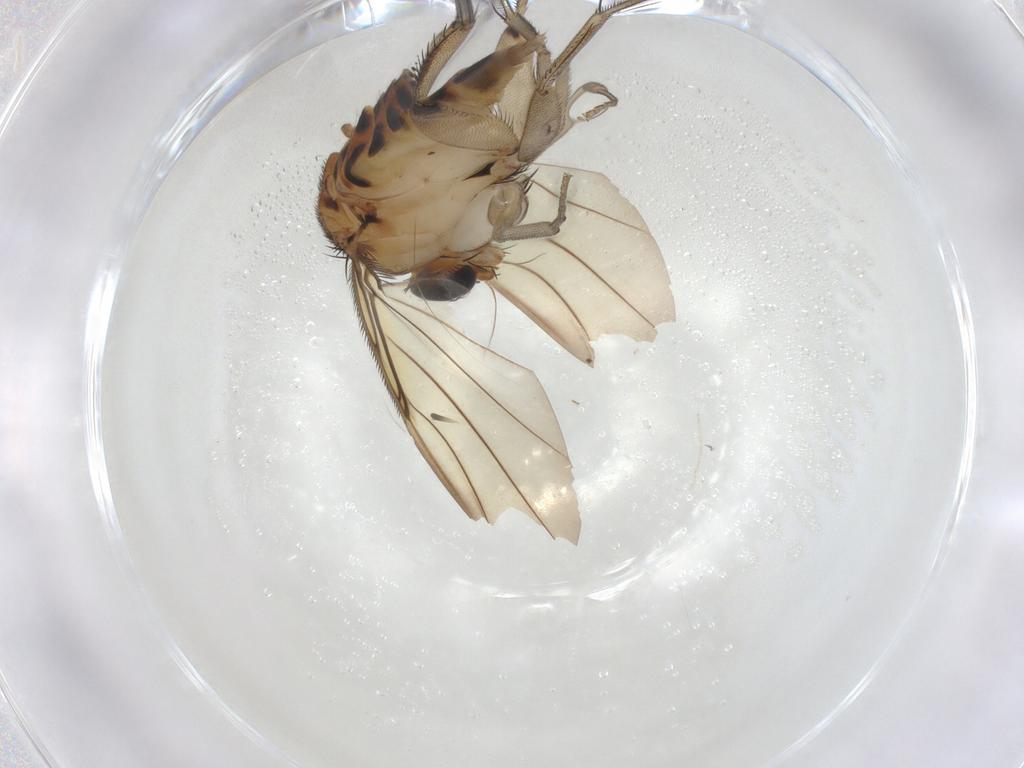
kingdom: Animalia
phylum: Arthropoda
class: Insecta
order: Diptera
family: Phoridae
